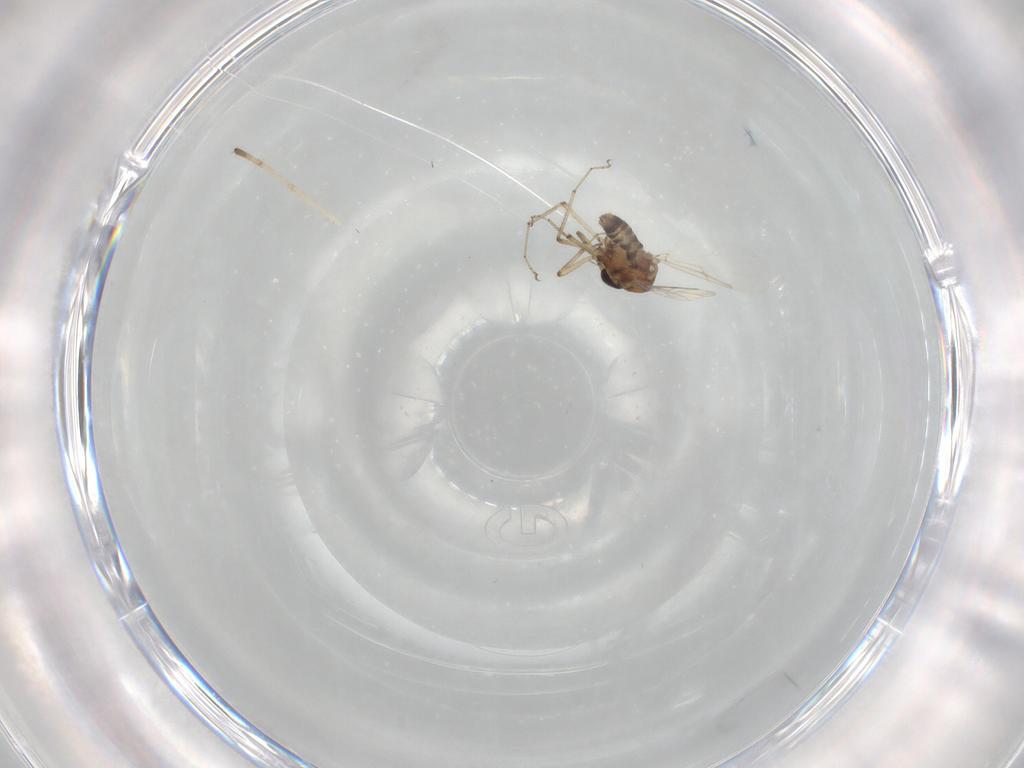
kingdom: Animalia
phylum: Arthropoda
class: Insecta
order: Diptera
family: Ceratopogonidae
